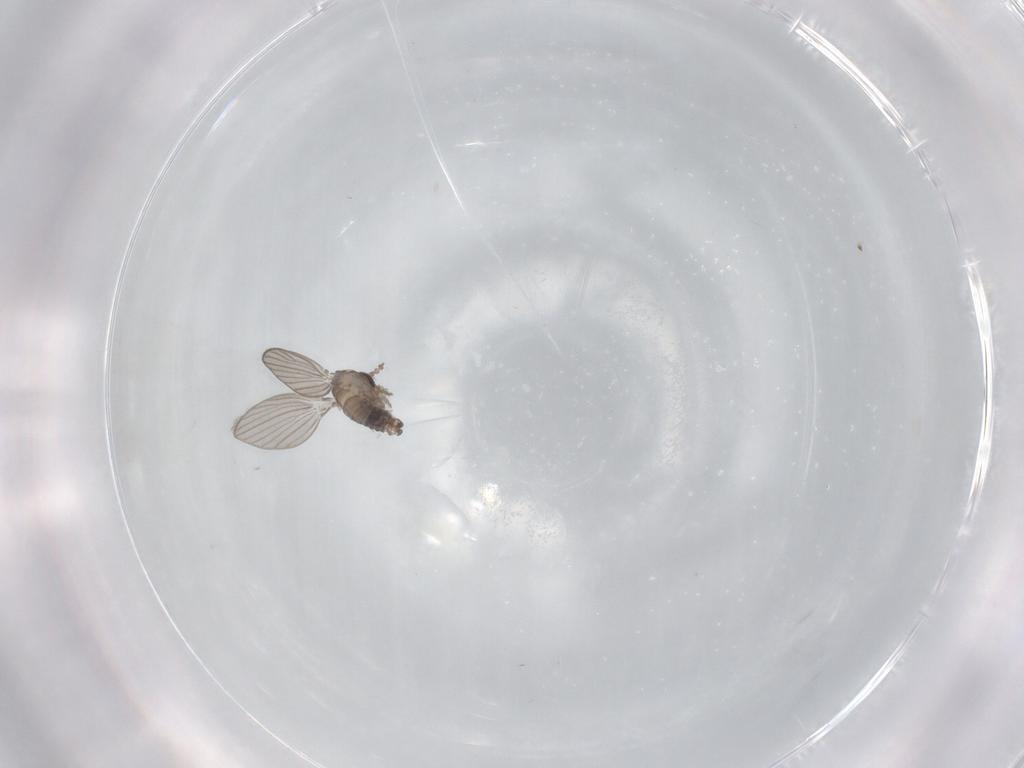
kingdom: Animalia
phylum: Arthropoda
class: Insecta
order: Diptera
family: Psychodidae
